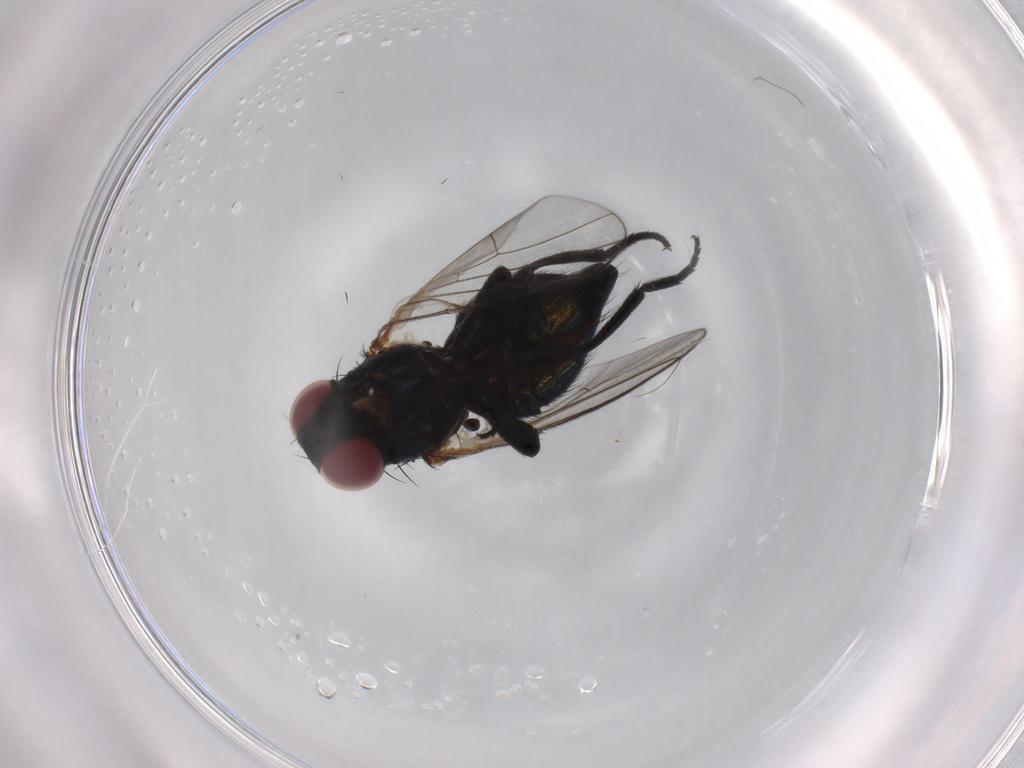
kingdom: Animalia
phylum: Arthropoda
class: Insecta
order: Diptera
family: Agromyzidae
